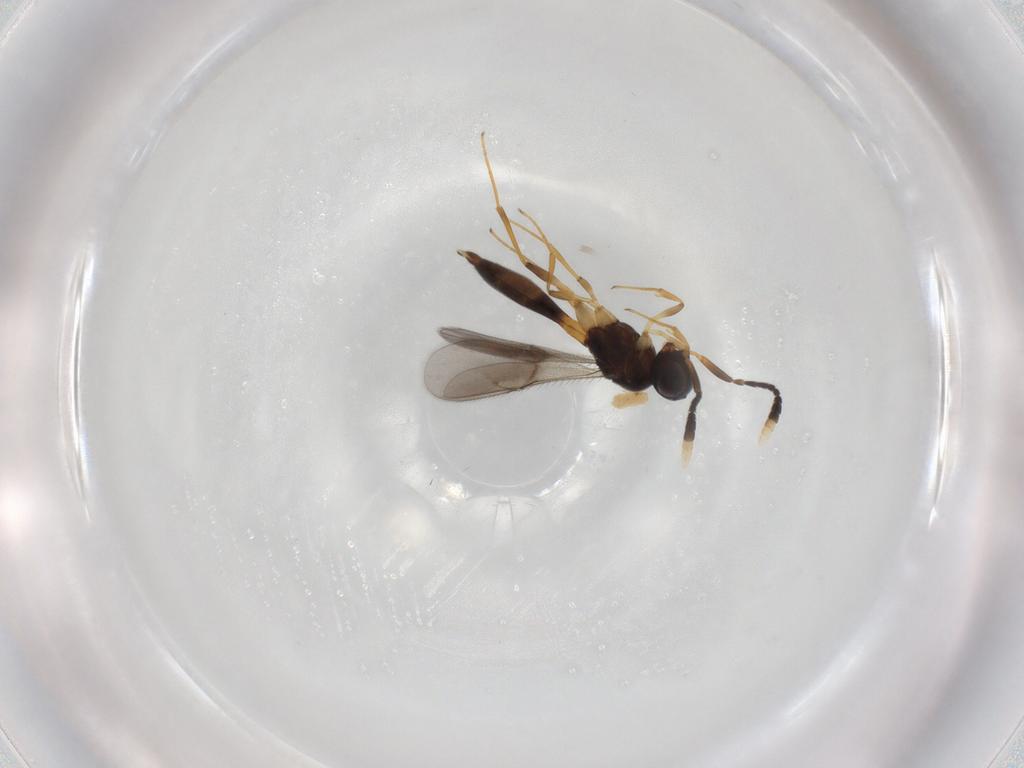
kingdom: Animalia
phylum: Arthropoda
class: Insecta
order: Hymenoptera
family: Scelionidae
